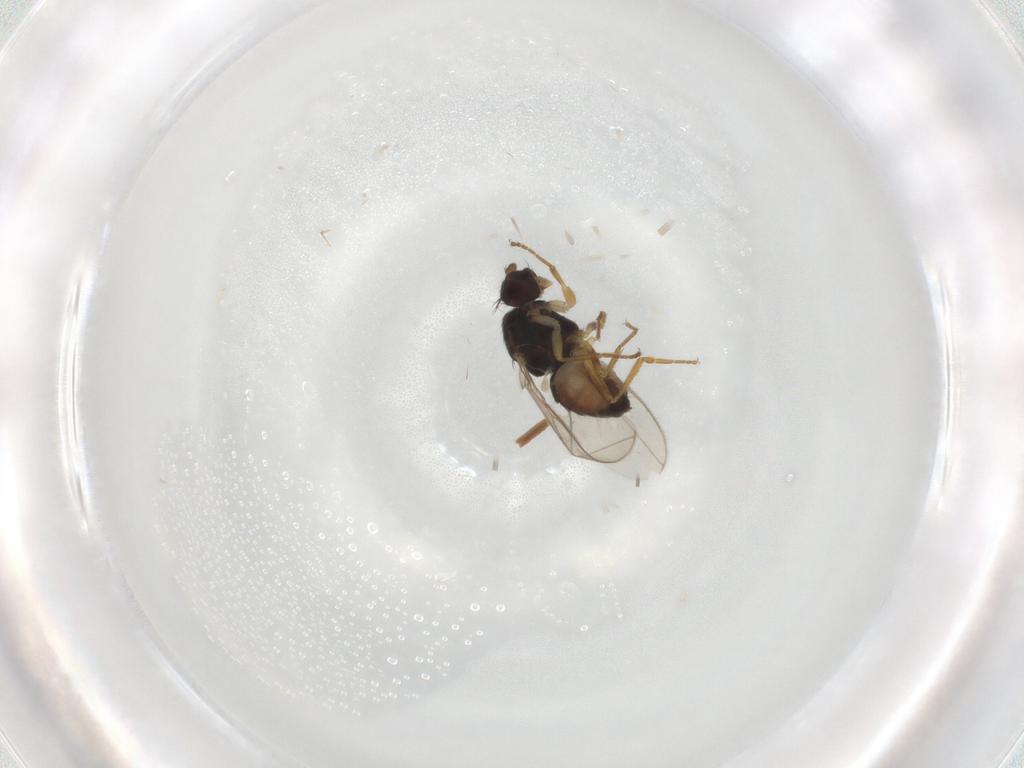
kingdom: Animalia
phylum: Arthropoda
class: Insecta
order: Diptera
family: Sphaeroceridae
